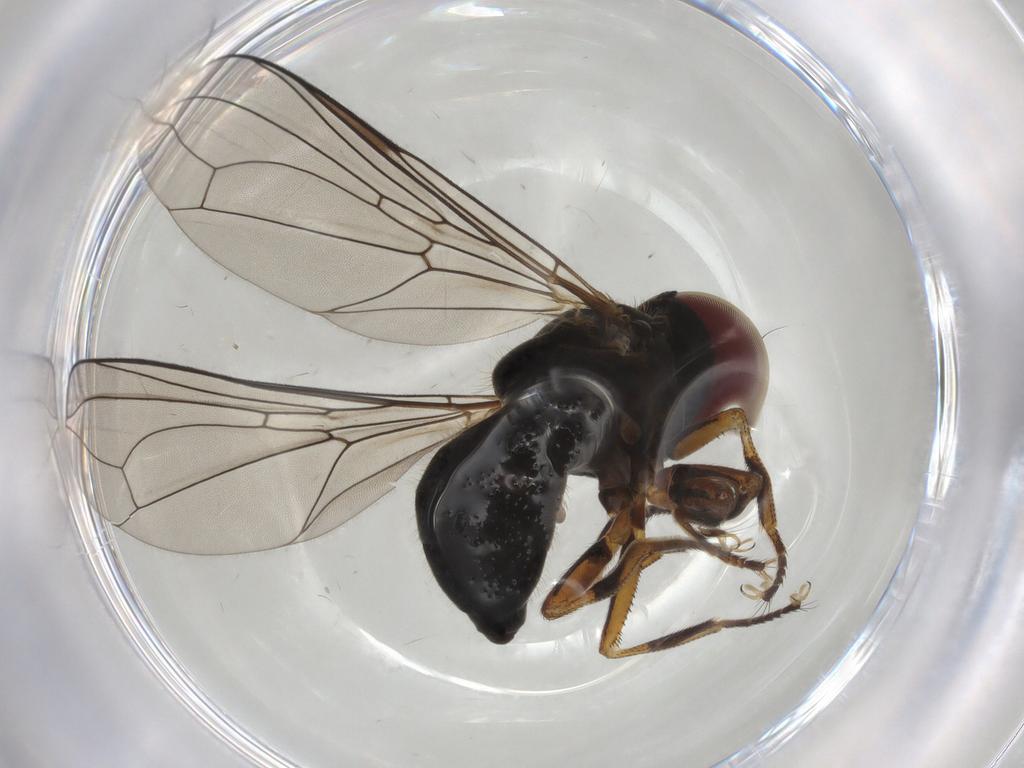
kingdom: Animalia
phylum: Arthropoda
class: Insecta
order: Diptera
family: Pipunculidae
